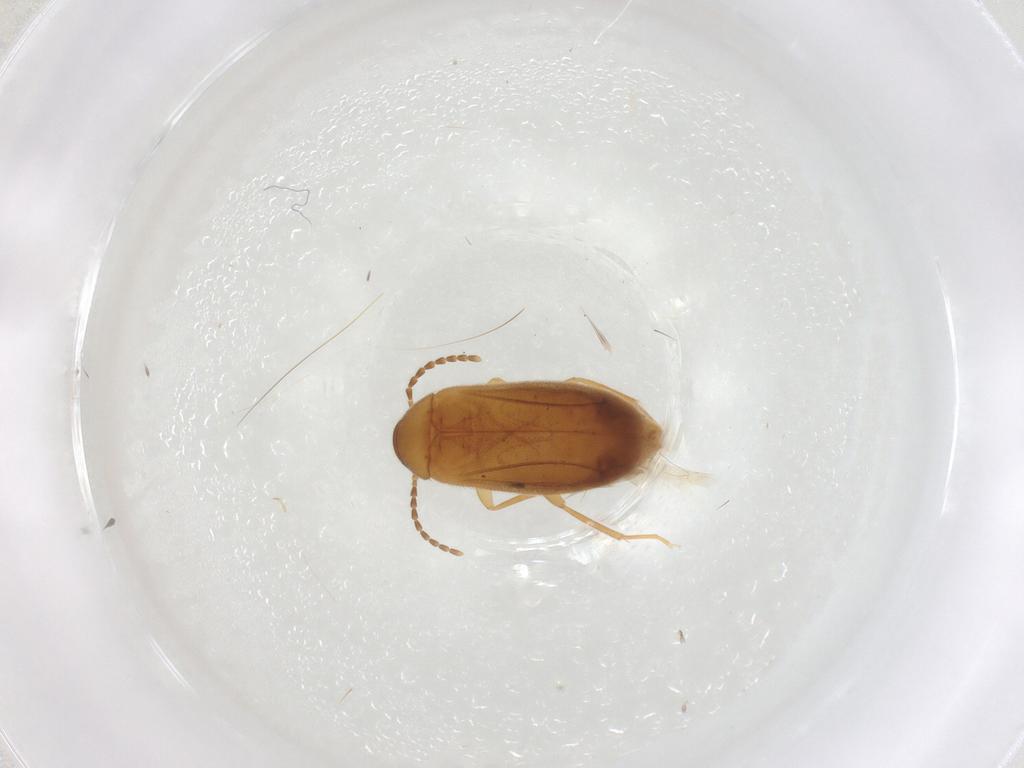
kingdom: Animalia
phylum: Arthropoda
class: Insecta
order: Coleoptera
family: Scraptiidae
